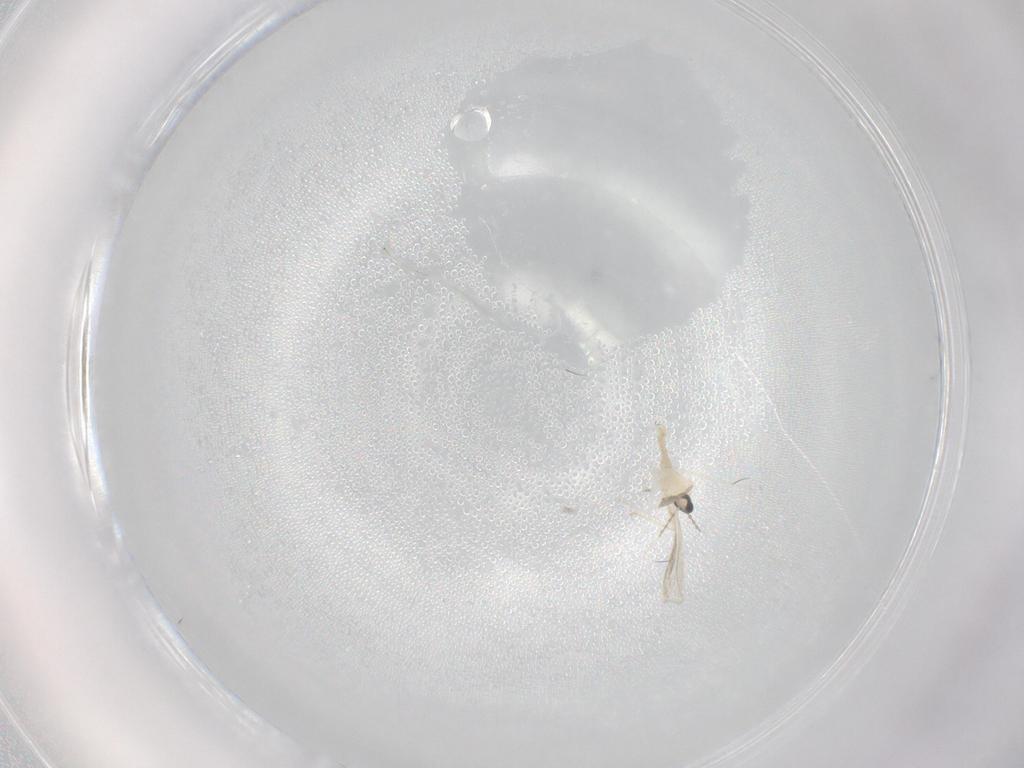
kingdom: Animalia
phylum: Arthropoda
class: Insecta
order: Diptera
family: Cecidomyiidae
